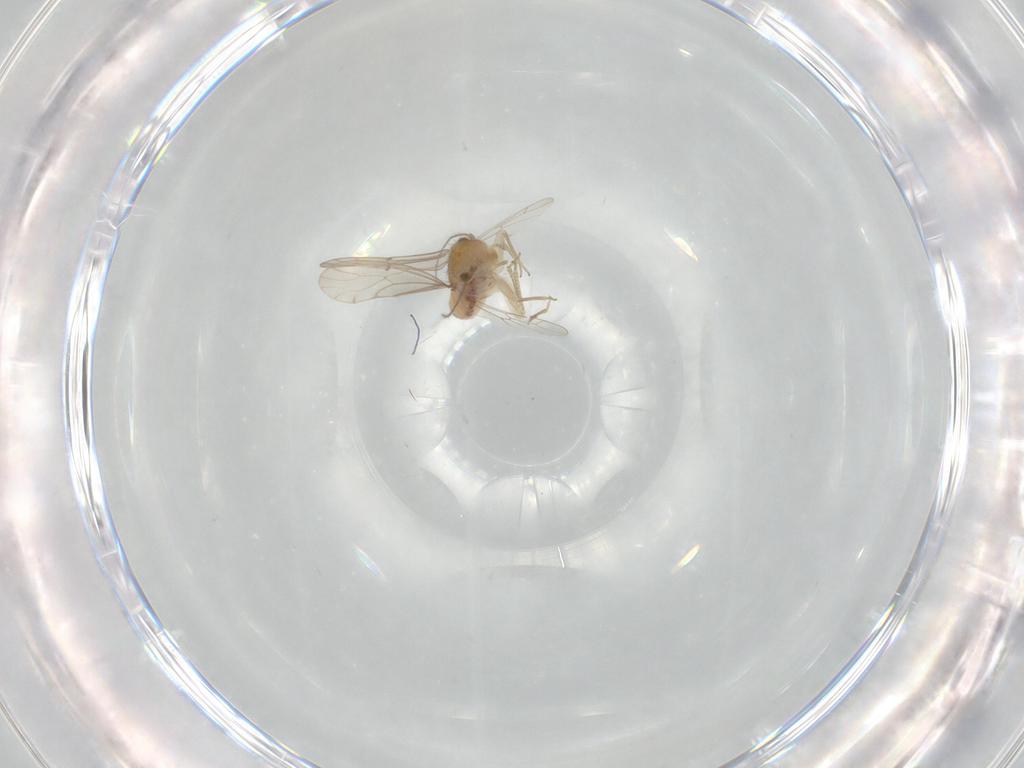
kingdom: Animalia
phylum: Arthropoda
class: Insecta
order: Psocodea
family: Ectopsocidae
